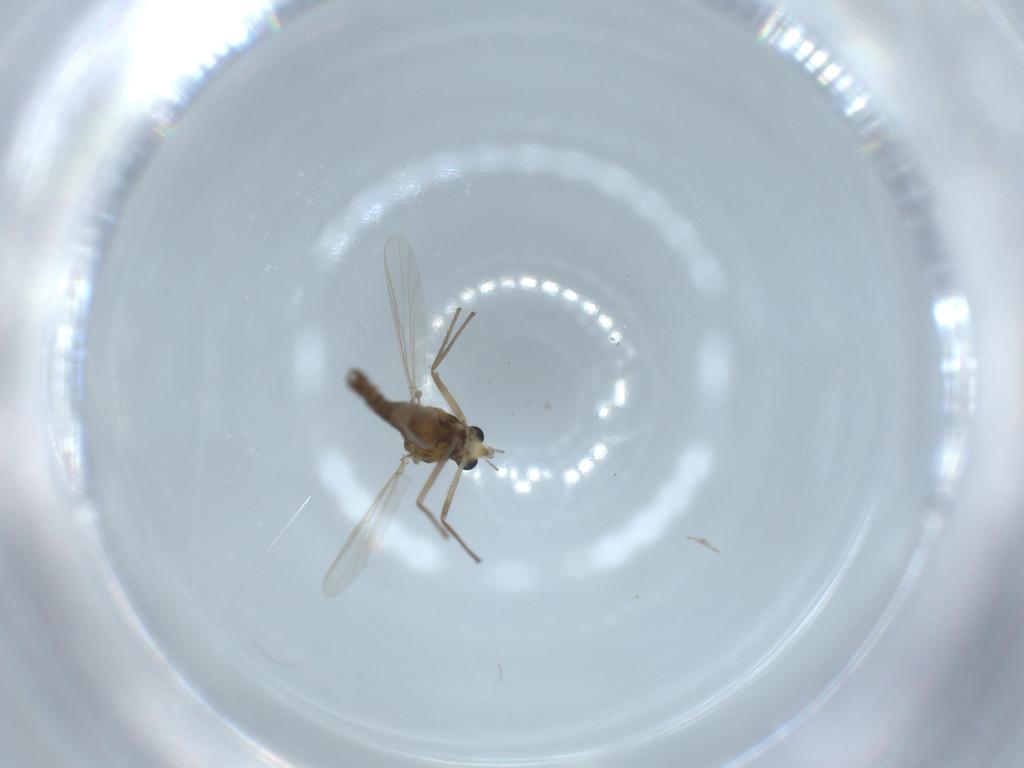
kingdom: Animalia
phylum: Arthropoda
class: Insecta
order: Diptera
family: Chironomidae
